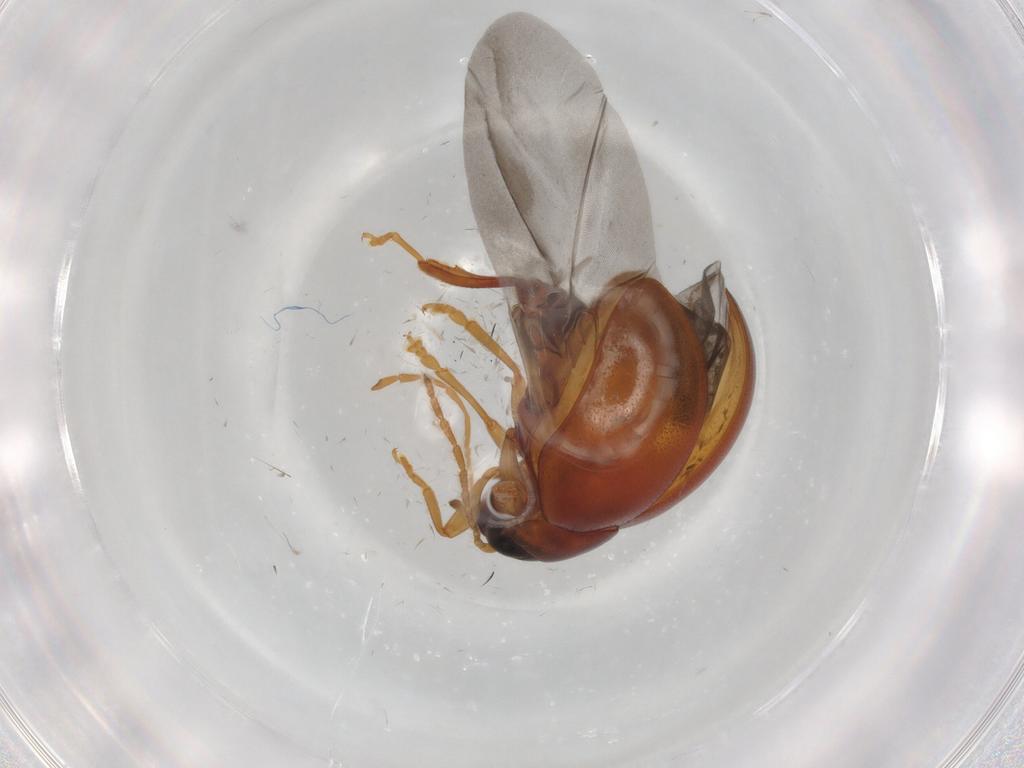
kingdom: Animalia
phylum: Arthropoda
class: Insecta
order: Coleoptera
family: Chrysomelidae
